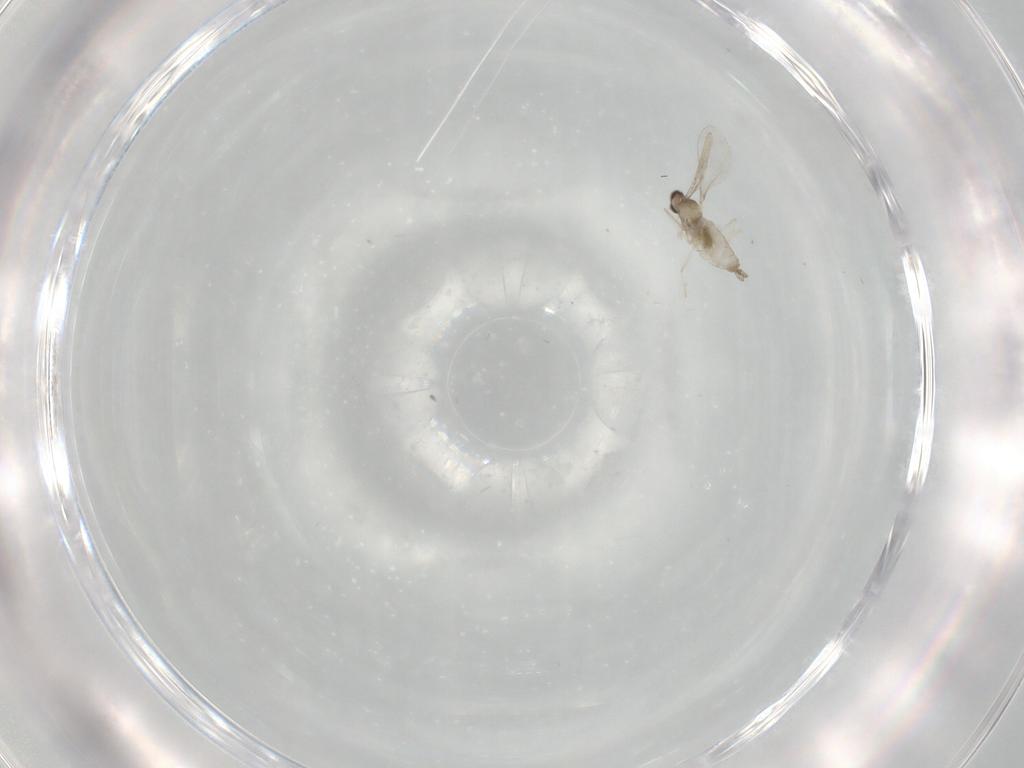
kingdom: Animalia
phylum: Arthropoda
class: Insecta
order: Diptera
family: Cecidomyiidae
